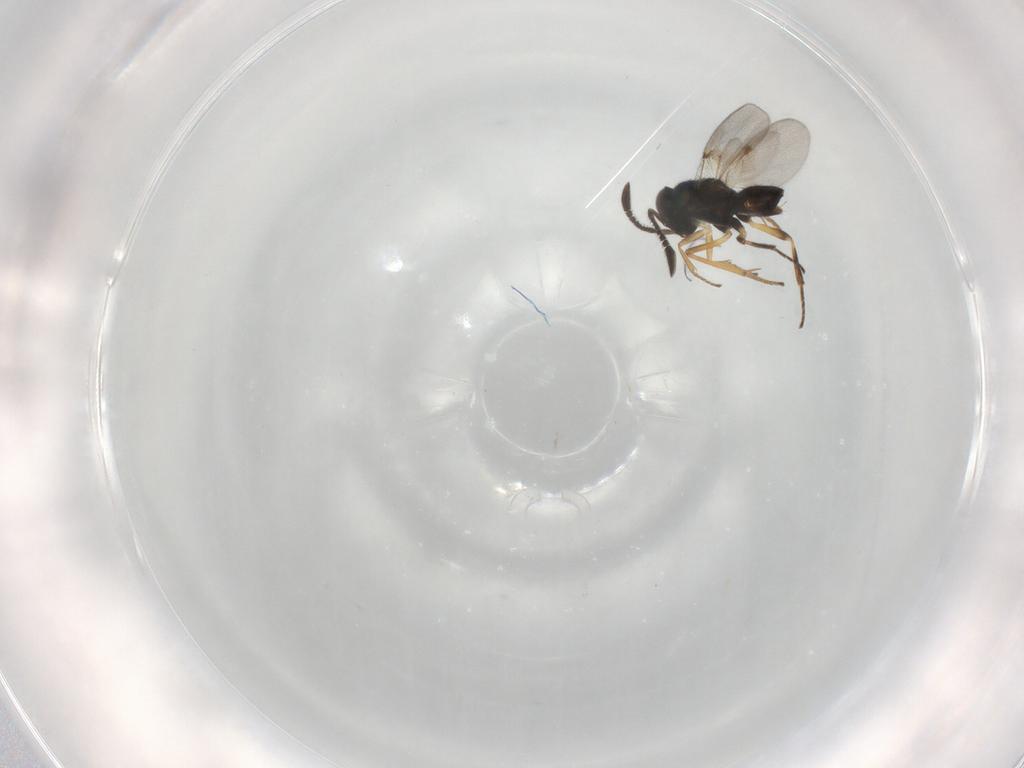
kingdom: Animalia
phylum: Arthropoda
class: Insecta
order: Hymenoptera
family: Encyrtidae
